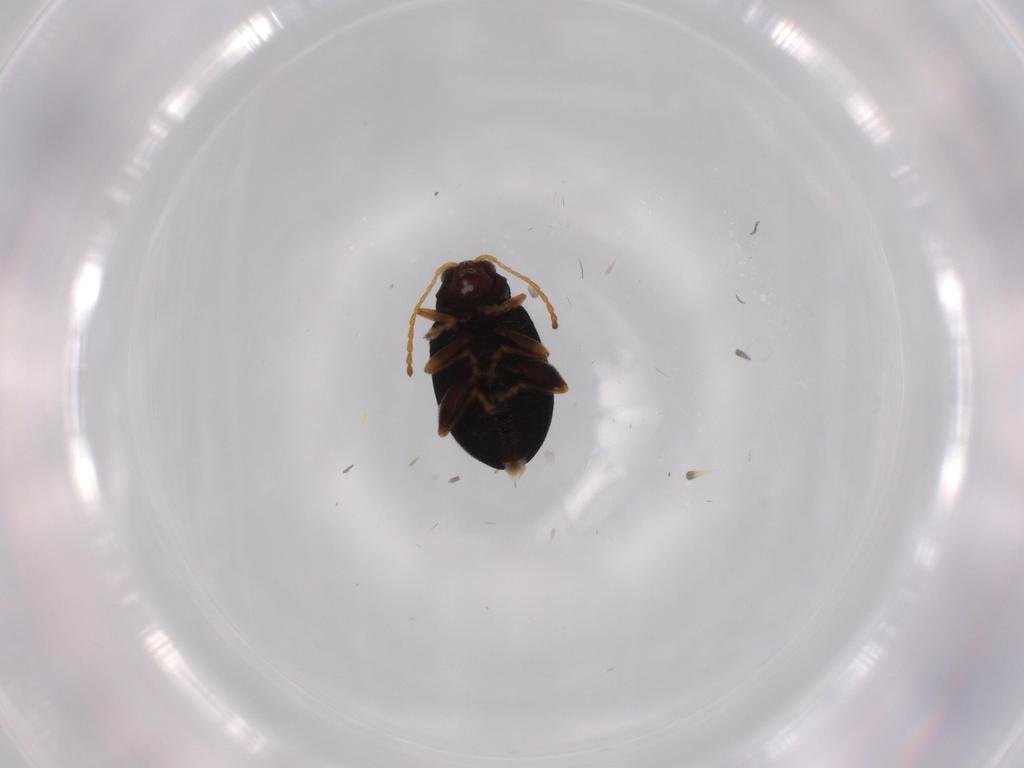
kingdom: Animalia
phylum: Arthropoda
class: Insecta
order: Coleoptera
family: Chrysomelidae
